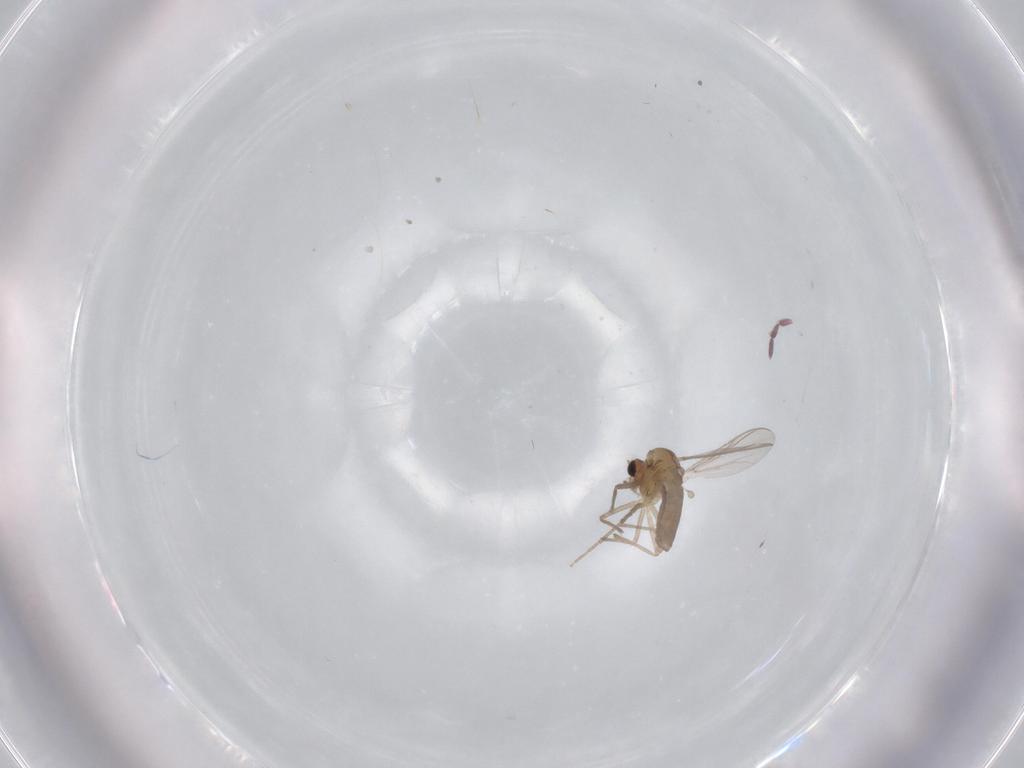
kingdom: Animalia
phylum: Arthropoda
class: Insecta
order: Diptera
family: Chironomidae
